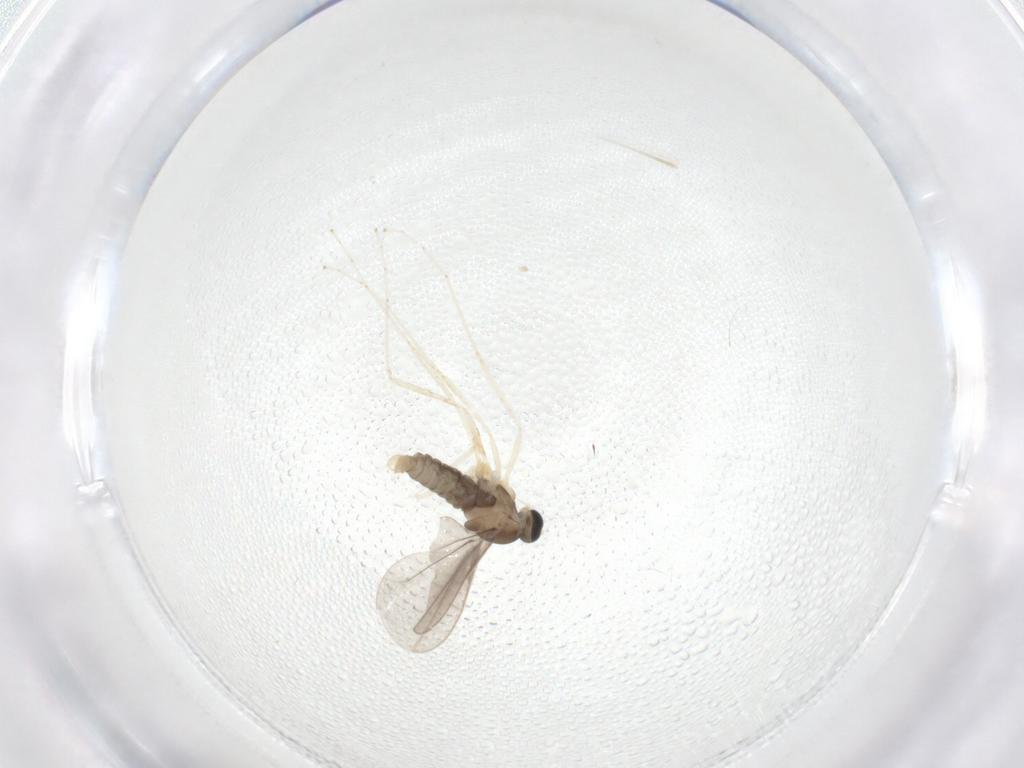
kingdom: Animalia
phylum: Arthropoda
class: Insecta
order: Diptera
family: Cecidomyiidae
